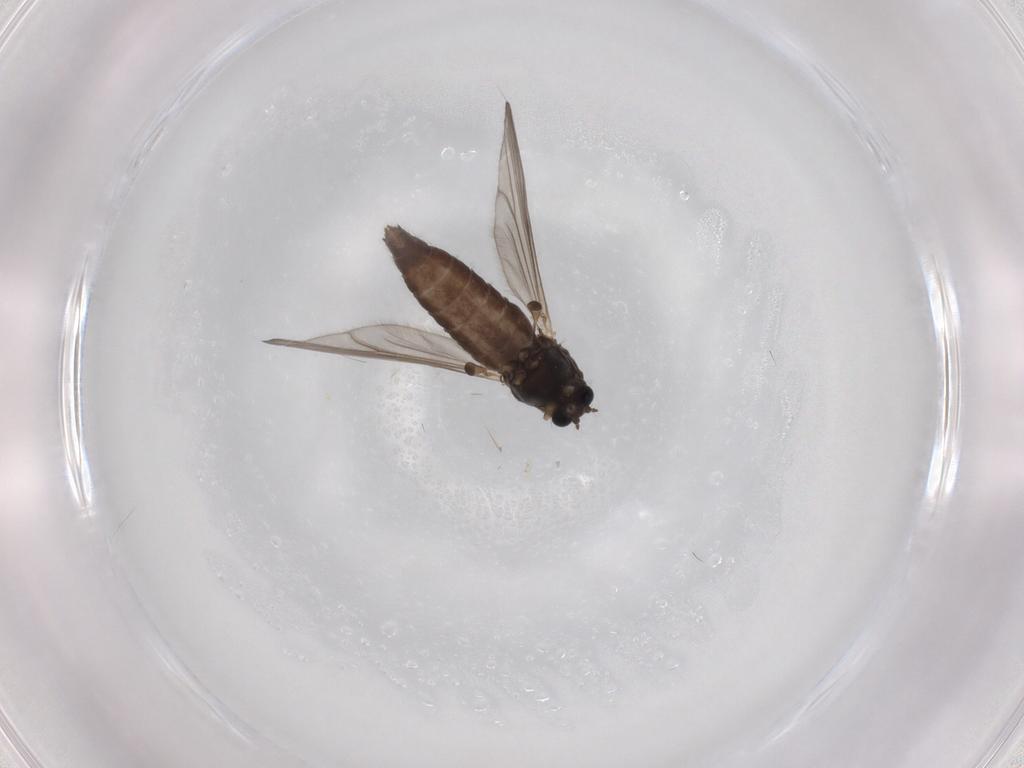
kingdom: Animalia
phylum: Arthropoda
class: Insecta
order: Diptera
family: Chironomidae
